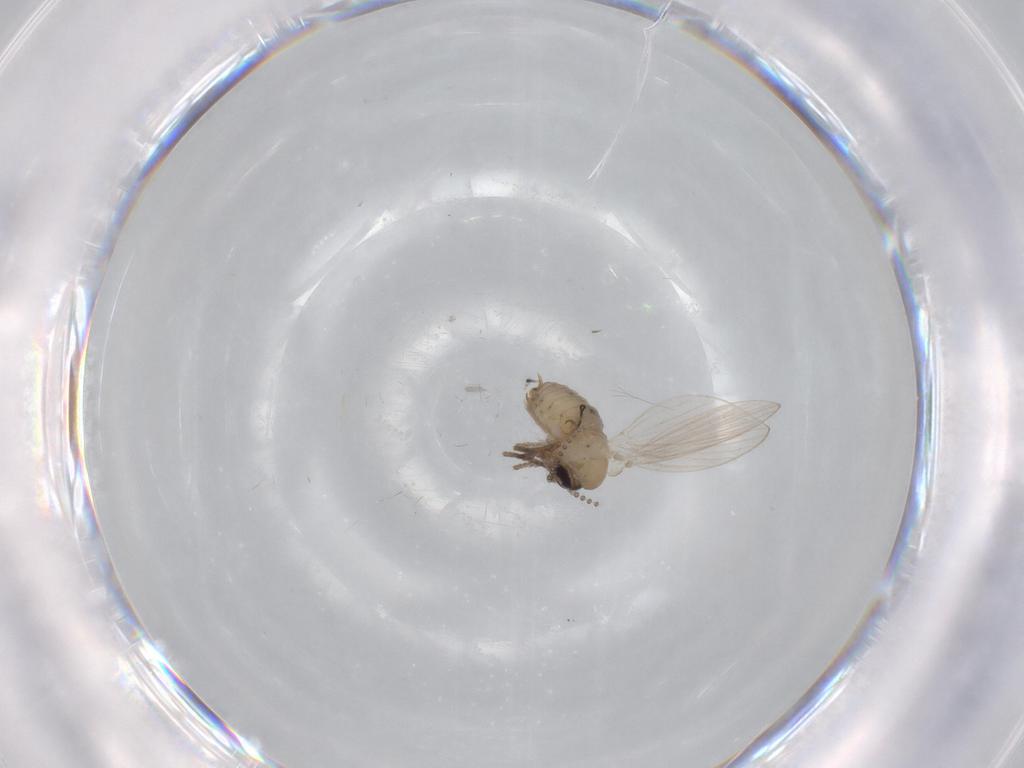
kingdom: Animalia
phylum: Arthropoda
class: Insecta
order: Diptera
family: Psychodidae
